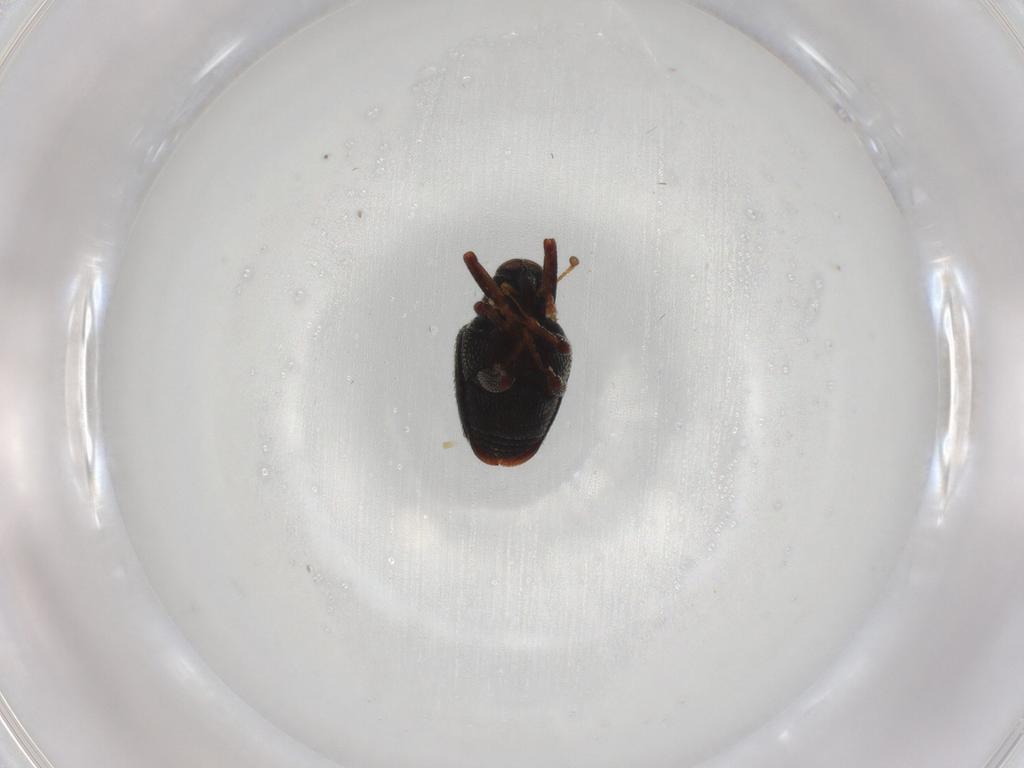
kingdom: Animalia
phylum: Arthropoda
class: Insecta
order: Coleoptera
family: Curculionidae
